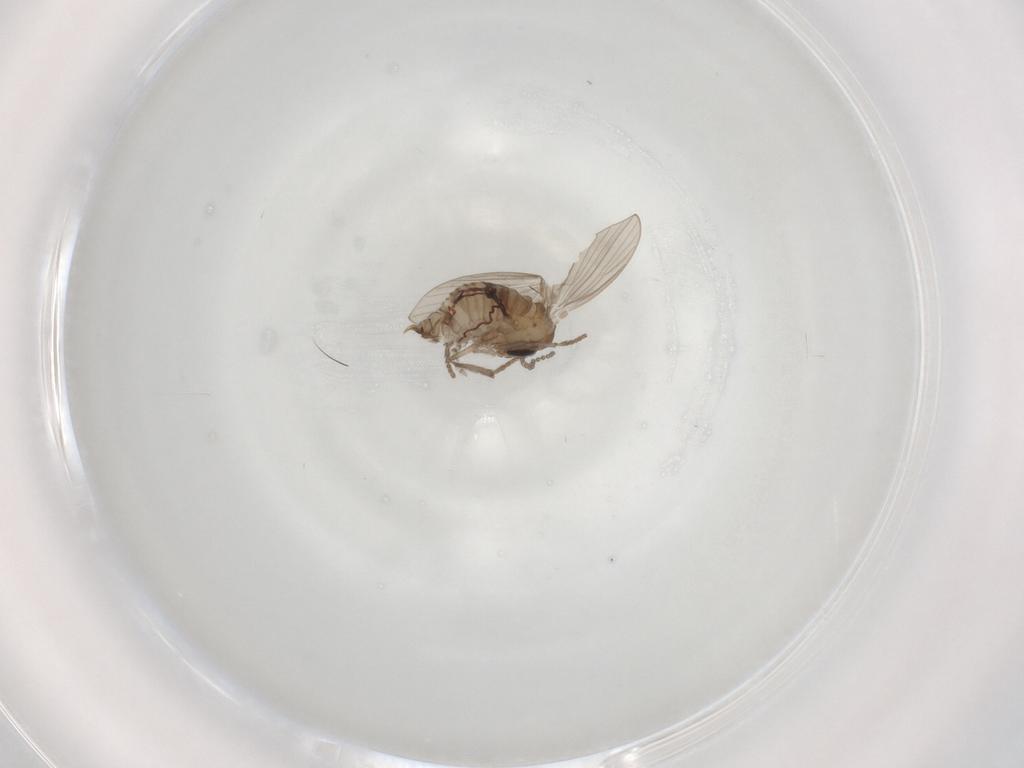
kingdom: Animalia
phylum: Arthropoda
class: Insecta
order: Diptera
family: Psychodidae
